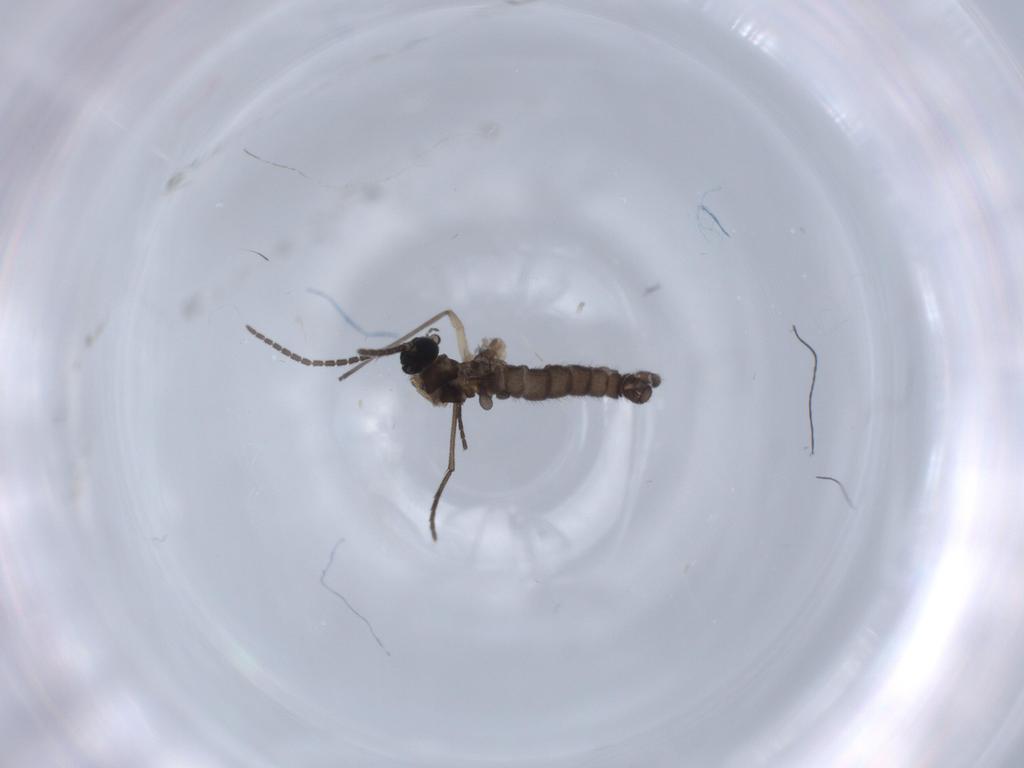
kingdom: Animalia
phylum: Arthropoda
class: Insecta
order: Diptera
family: Sciaridae
